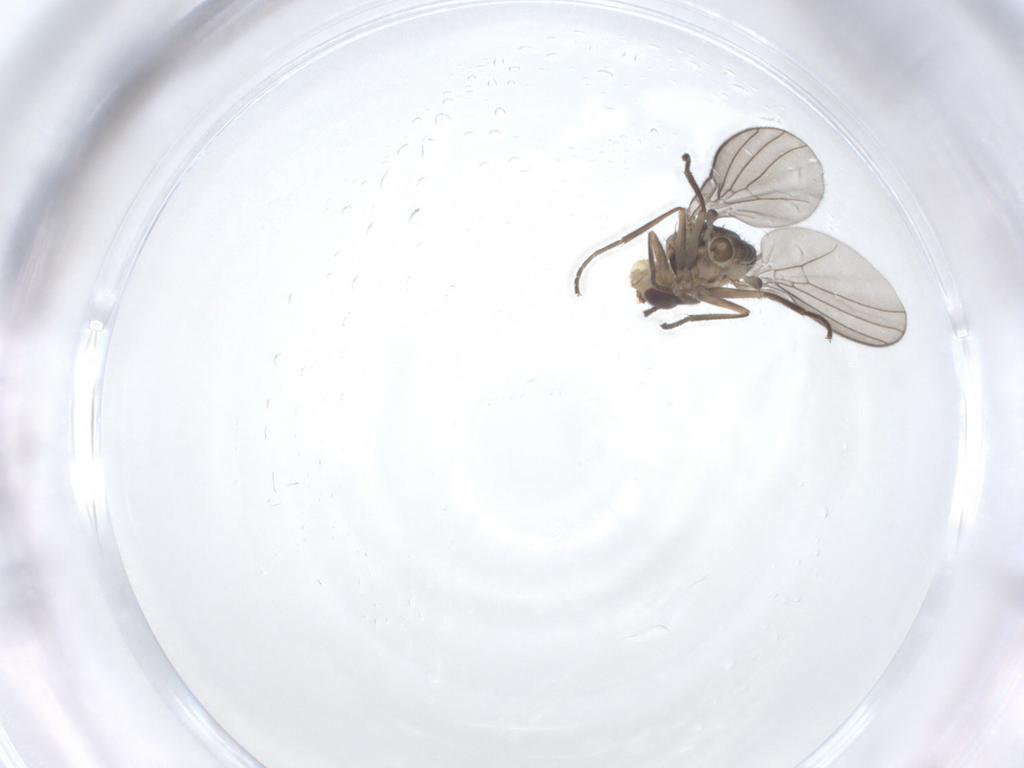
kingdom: Animalia
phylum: Arthropoda
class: Insecta
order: Diptera
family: Agromyzidae
